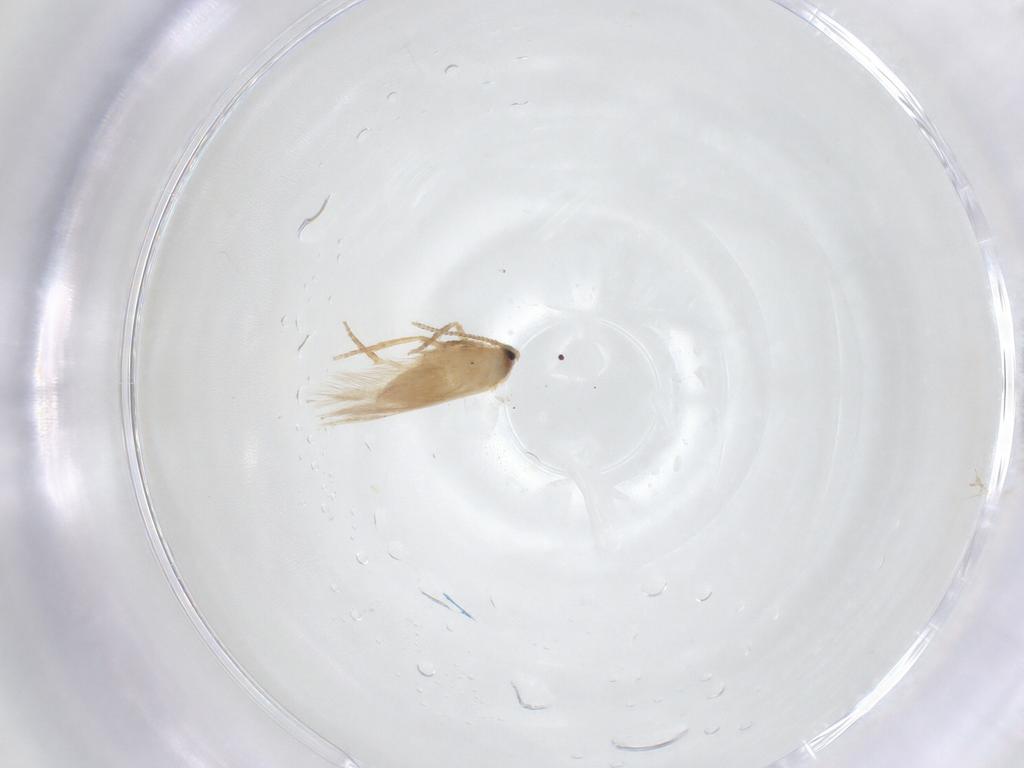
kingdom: Animalia
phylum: Arthropoda
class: Insecta
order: Lepidoptera
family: Nepticulidae
